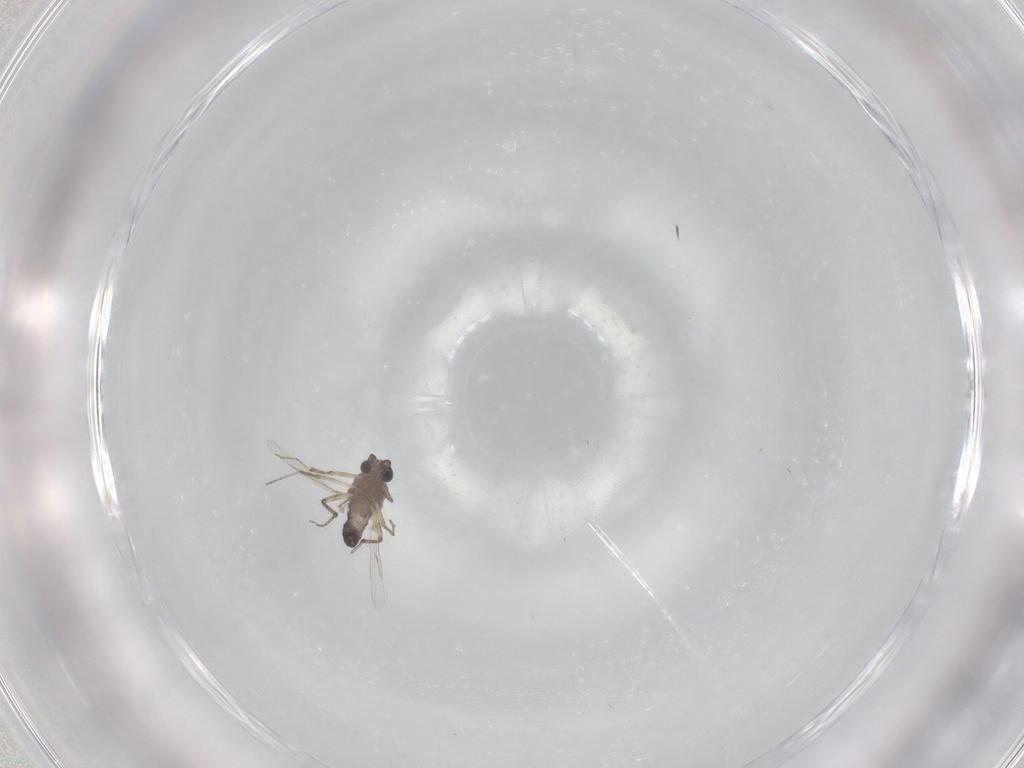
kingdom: Animalia
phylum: Arthropoda
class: Insecta
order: Diptera
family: Ceratopogonidae
